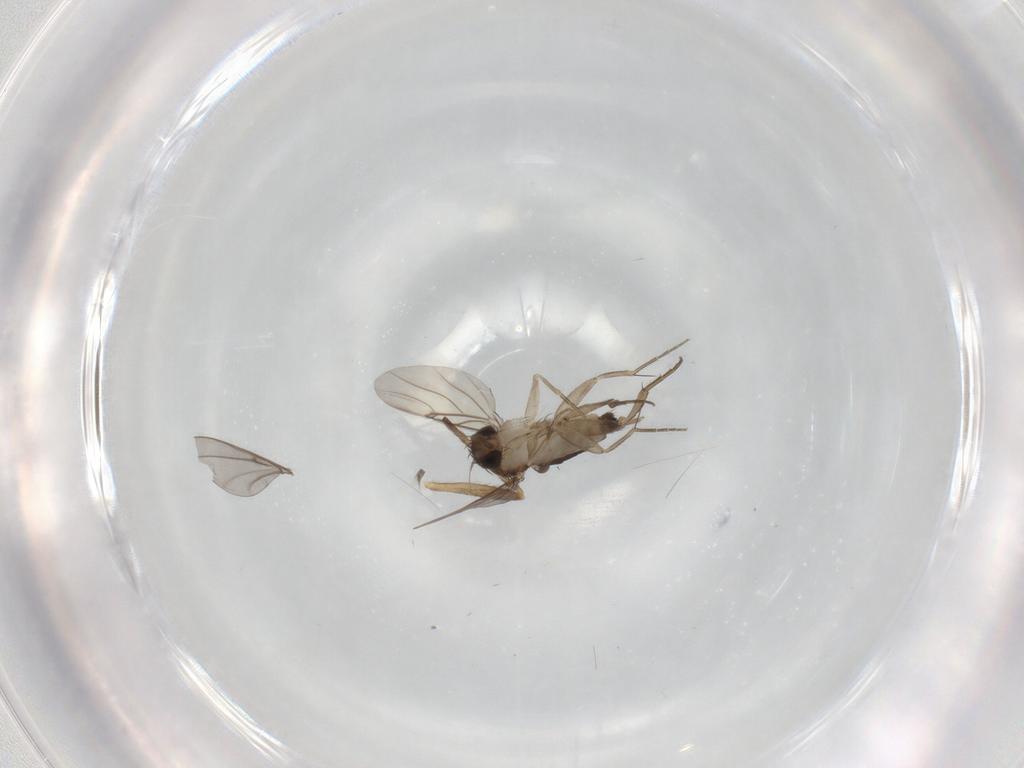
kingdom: Animalia
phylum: Arthropoda
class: Insecta
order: Diptera
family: Phoridae
